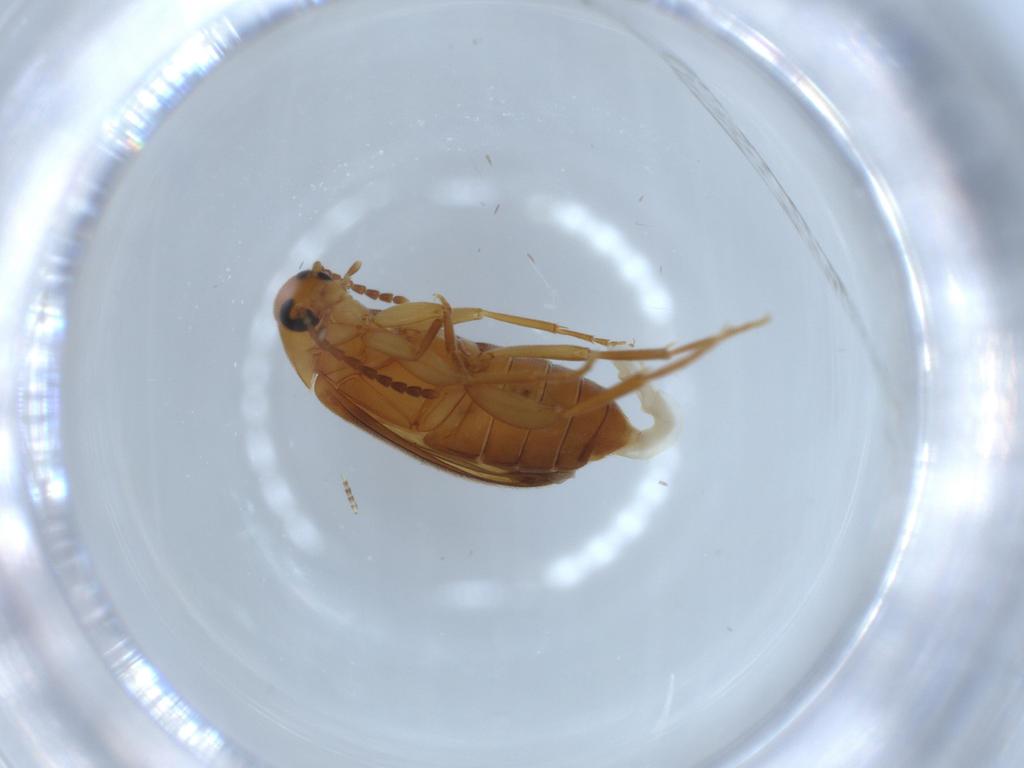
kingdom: Animalia
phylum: Arthropoda
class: Insecta
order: Coleoptera
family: Scraptiidae
